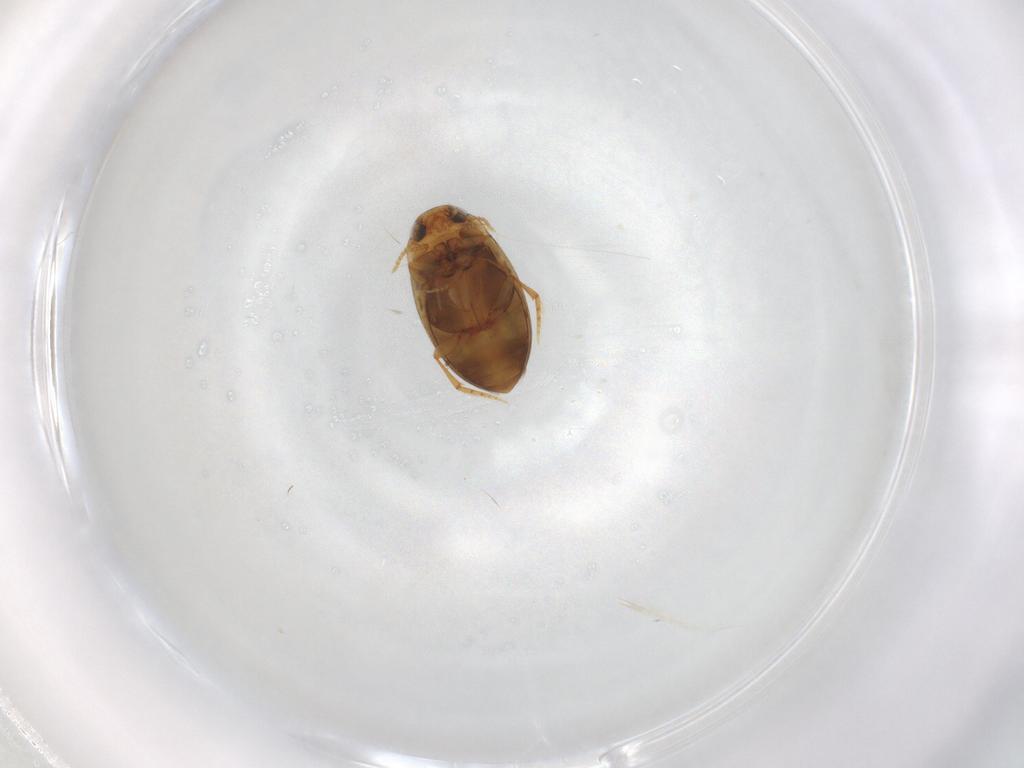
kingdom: Animalia
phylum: Arthropoda
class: Insecta
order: Coleoptera
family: Dytiscidae
